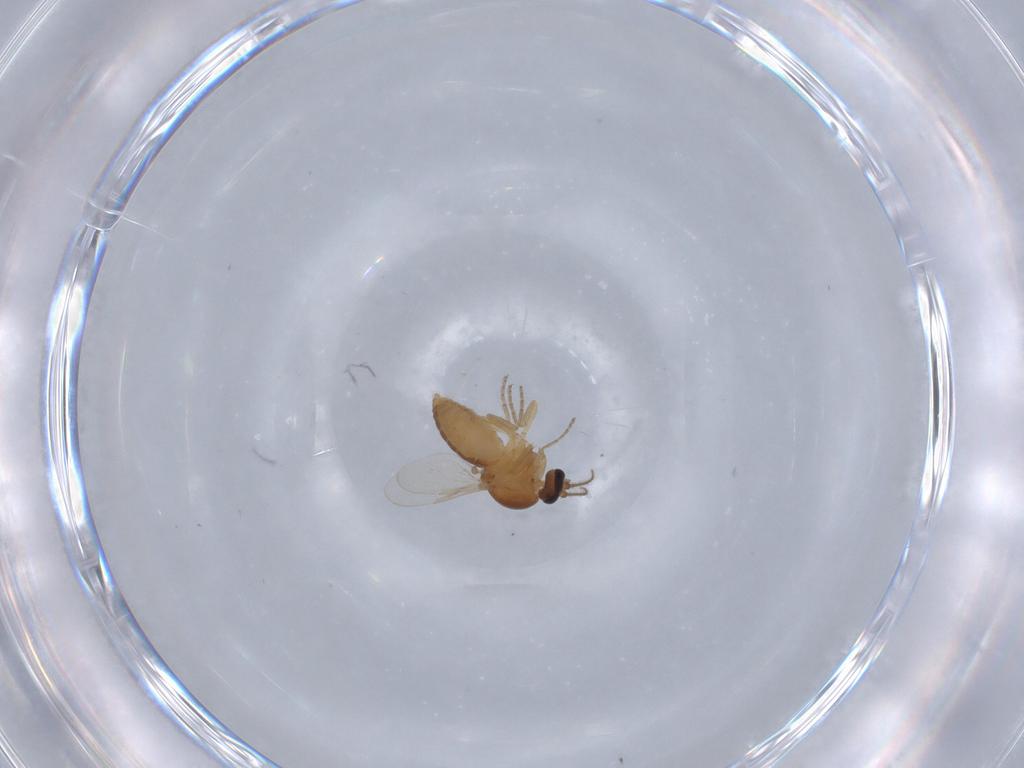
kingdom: Animalia
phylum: Arthropoda
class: Insecta
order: Diptera
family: Ceratopogonidae
